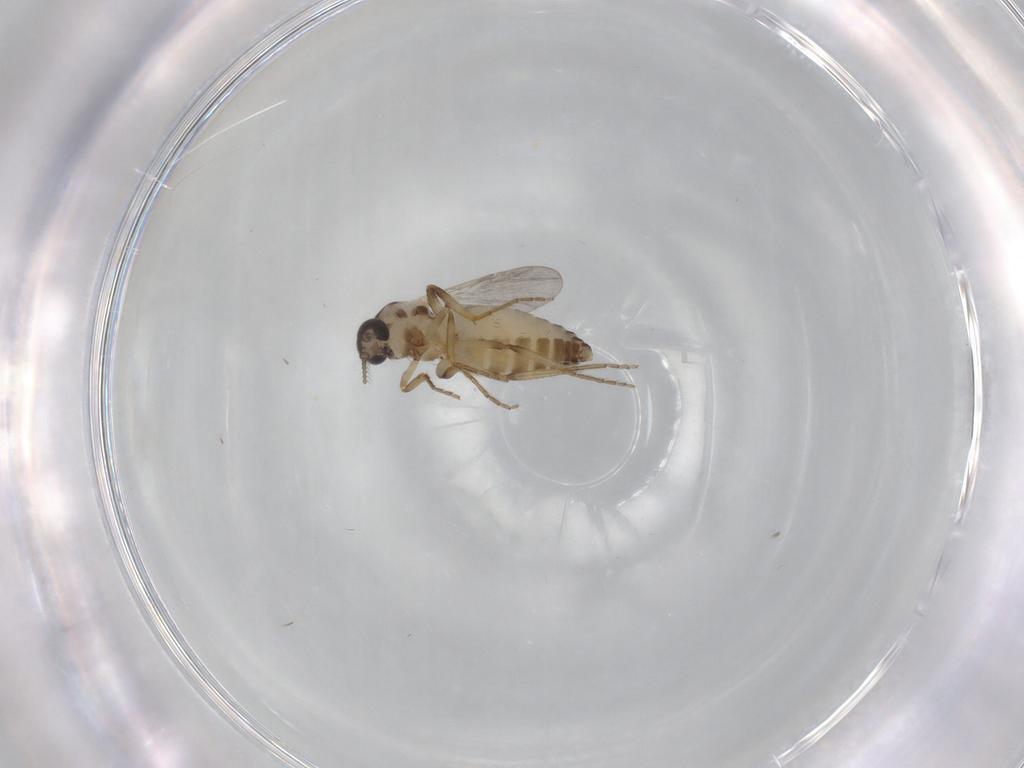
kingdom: Animalia
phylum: Arthropoda
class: Insecta
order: Diptera
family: Ceratopogonidae
